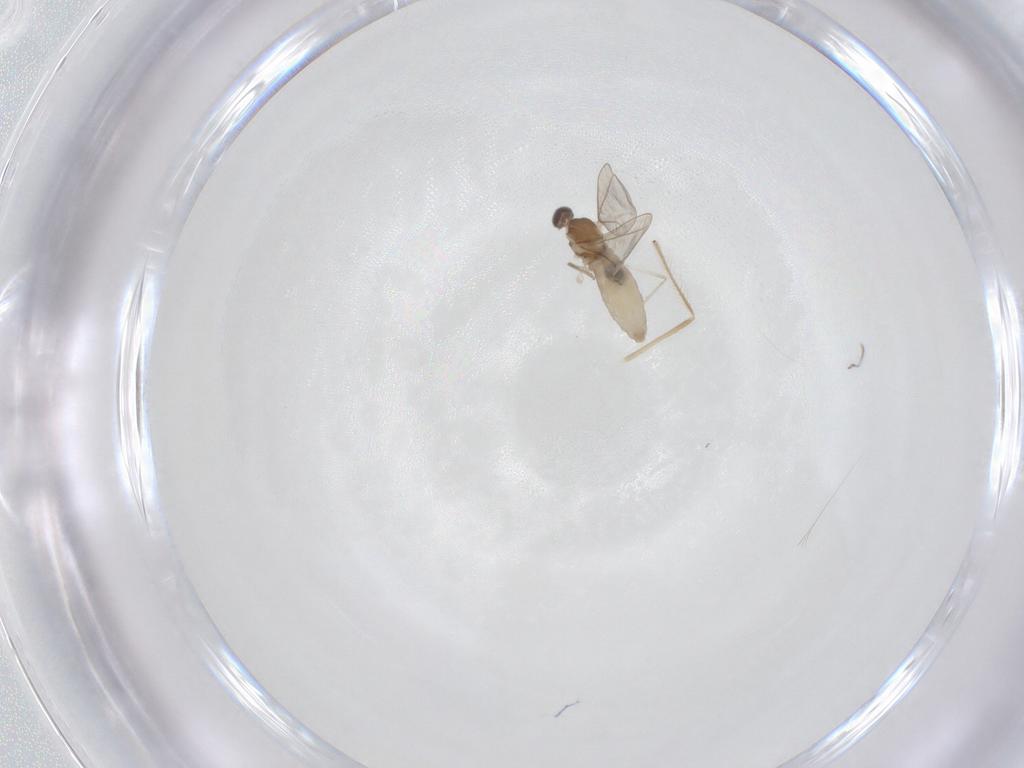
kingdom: Animalia
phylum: Arthropoda
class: Insecta
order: Diptera
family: Cecidomyiidae
